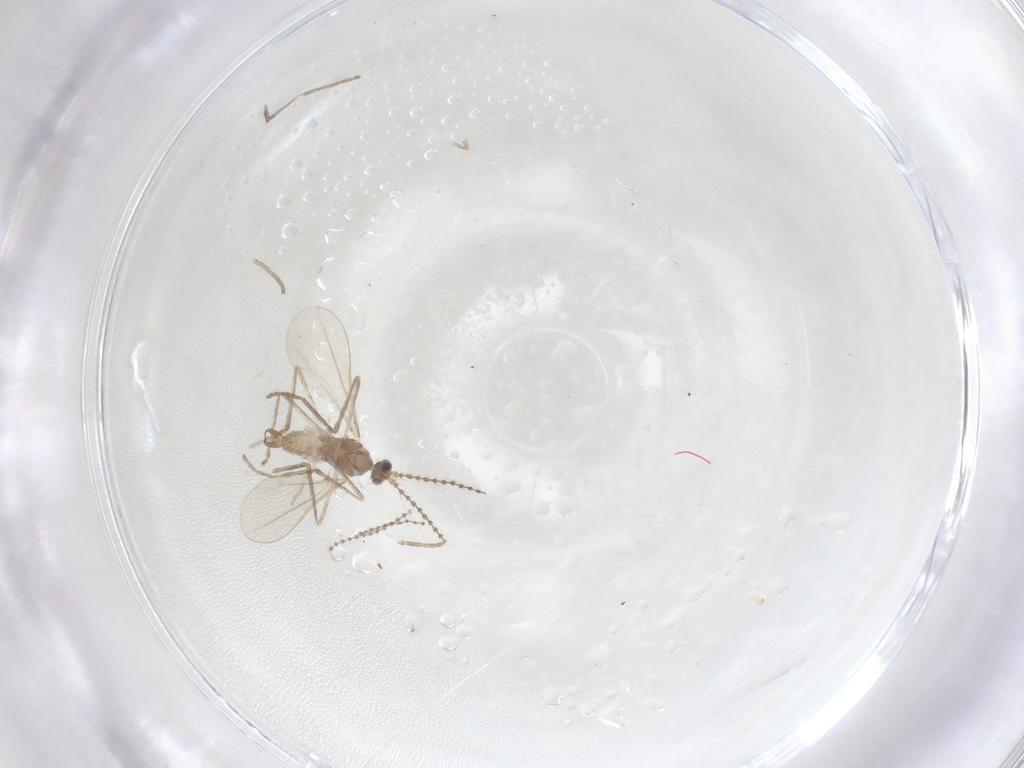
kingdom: Animalia
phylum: Arthropoda
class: Insecta
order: Diptera
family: Cecidomyiidae
